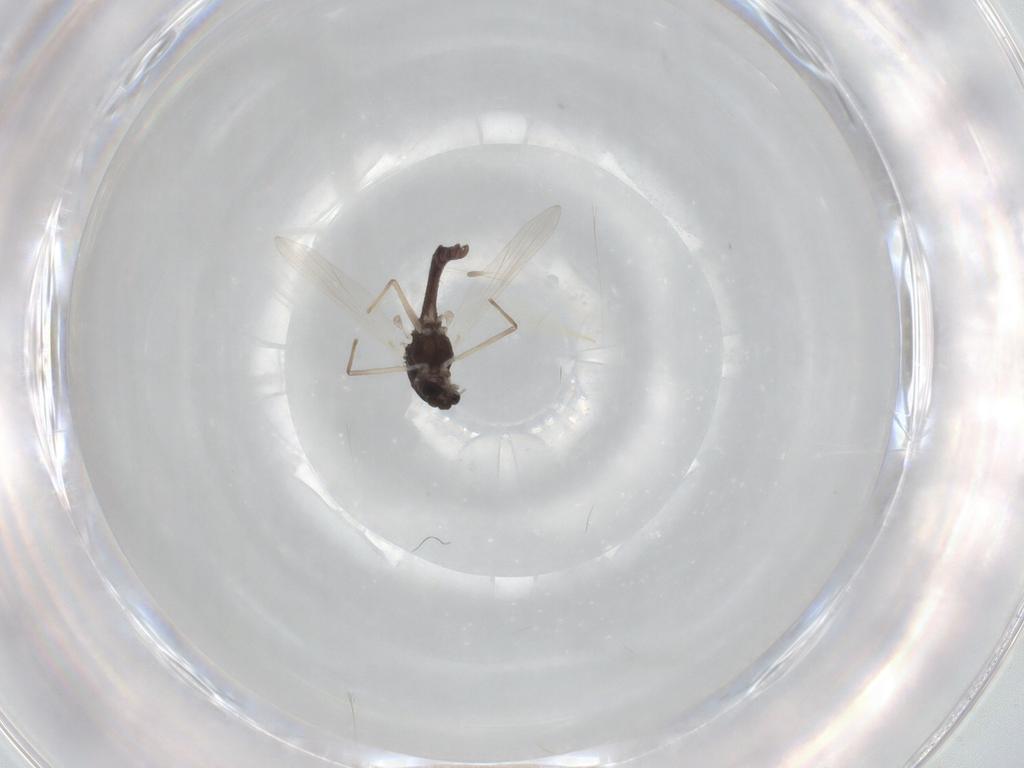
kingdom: Animalia
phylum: Arthropoda
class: Insecta
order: Diptera
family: Chironomidae
